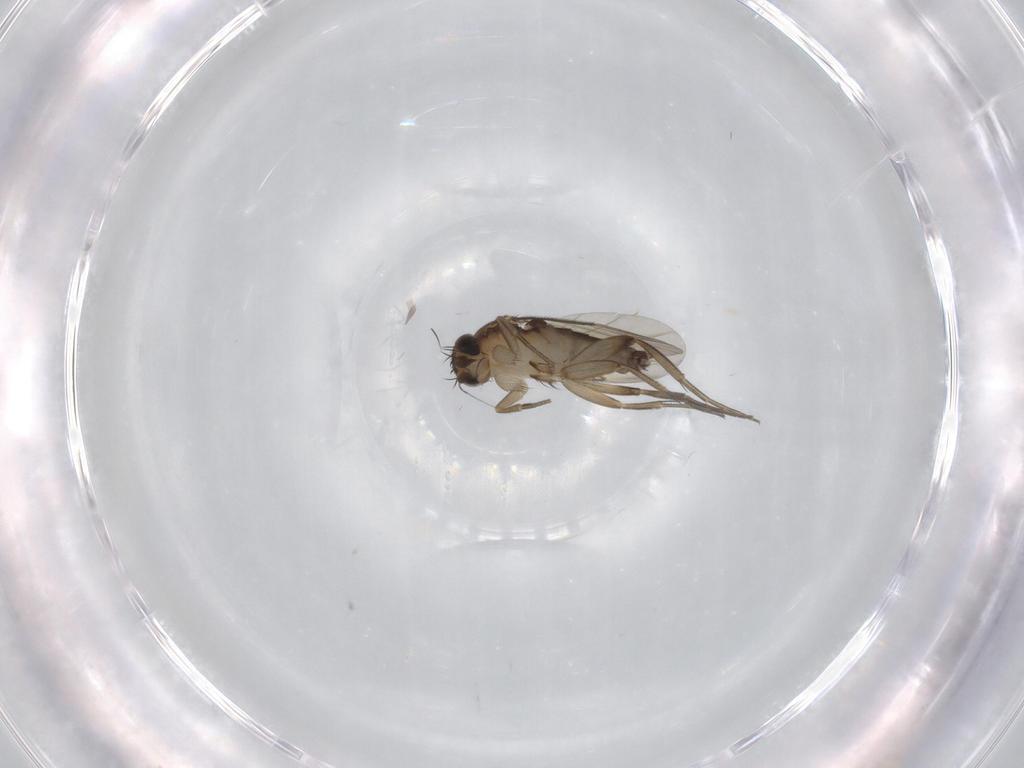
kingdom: Animalia
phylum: Arthropoda
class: Insecta
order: Diptera
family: Phoridae
